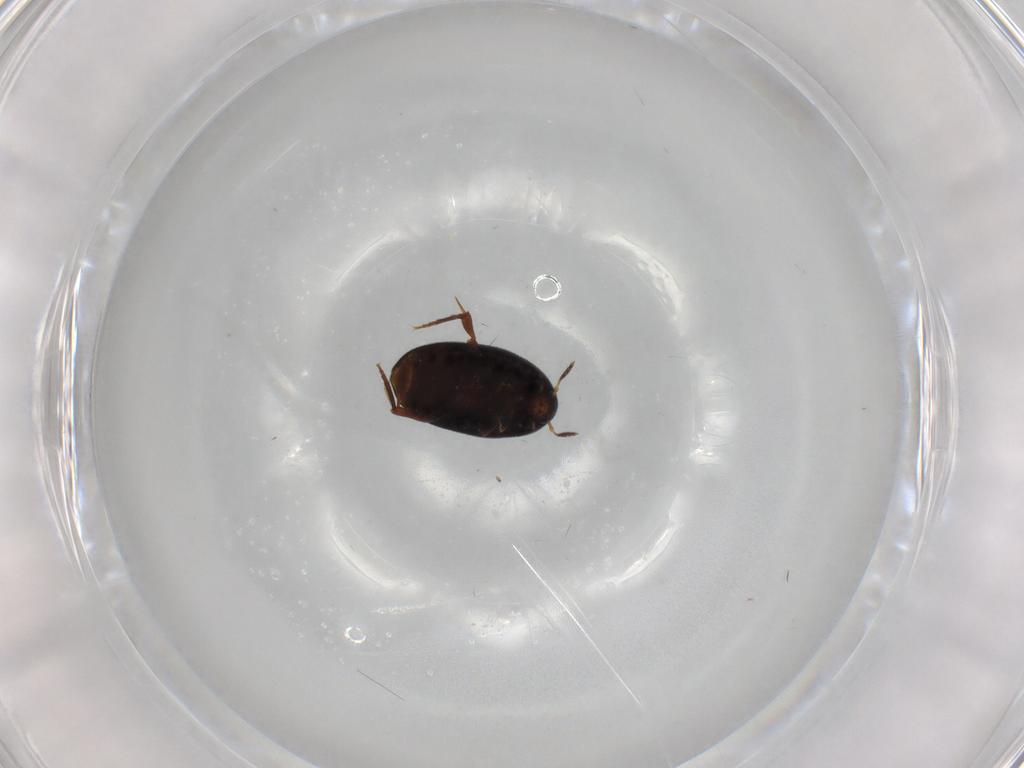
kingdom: Animalia
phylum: Arthropoda
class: Insecta
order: Coleoptera
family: Melandryidae
